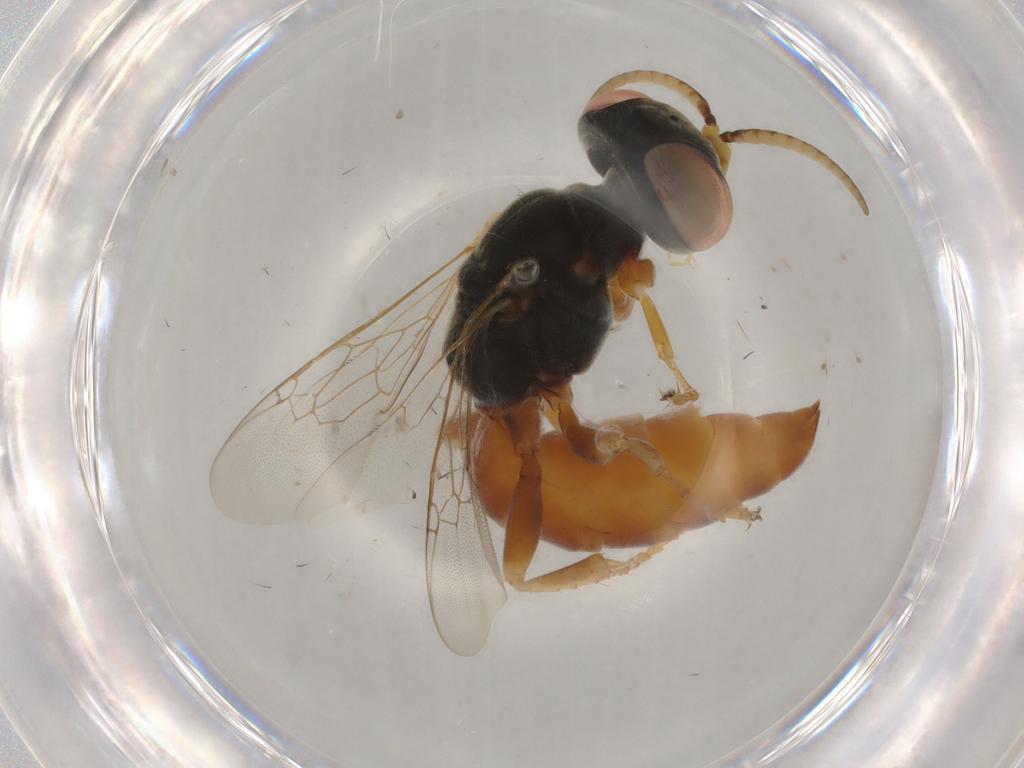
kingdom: Animalia
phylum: Arthropoda
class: Insecta
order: Hymenoptera
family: Crabronidae
